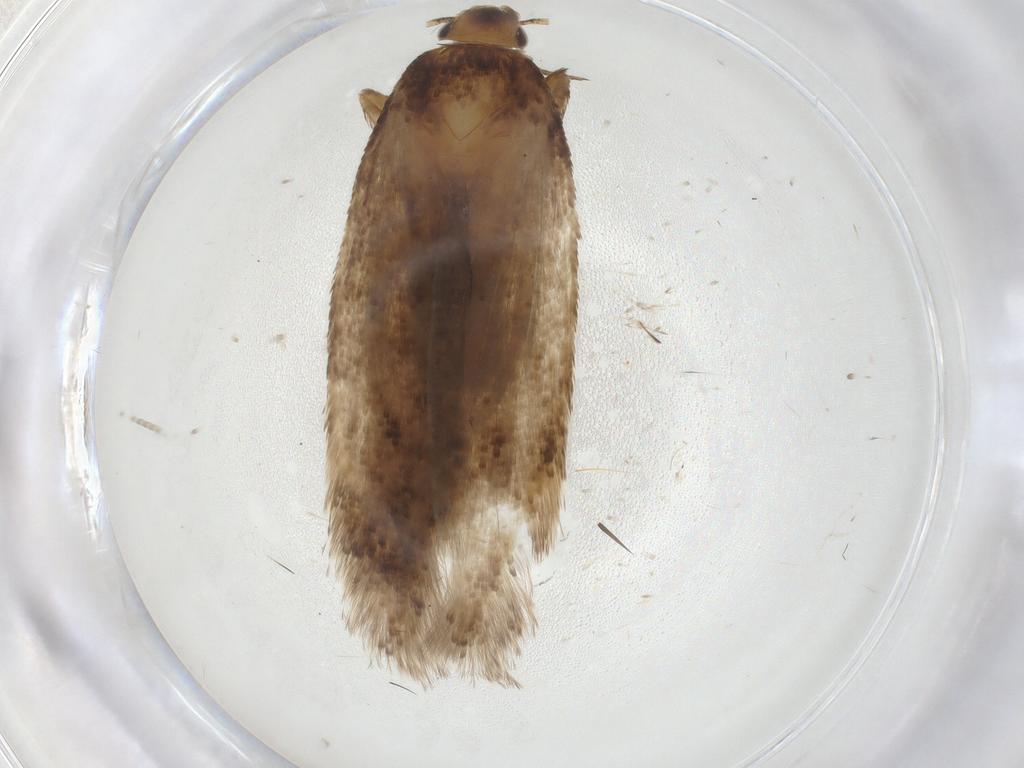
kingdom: Animalia
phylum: Arthropoda
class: Insecta
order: Lepidoptera
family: Gelechiidae
